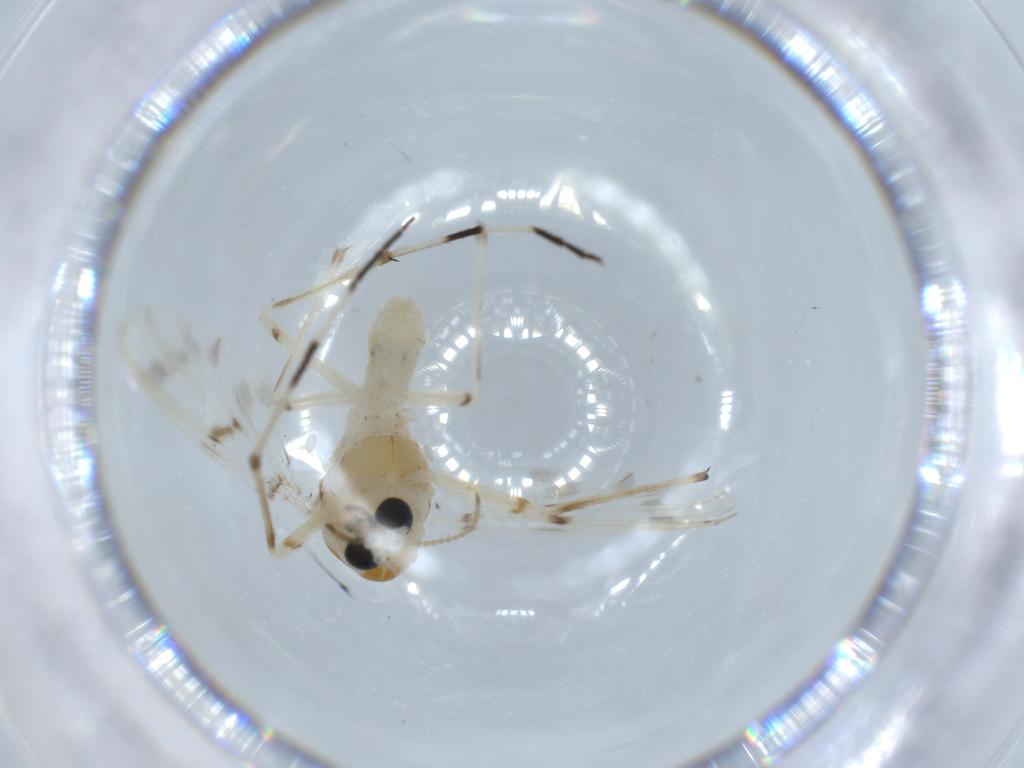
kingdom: Animalia
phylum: Arthropoda
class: Insecta
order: Diptera
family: Chironomidae
